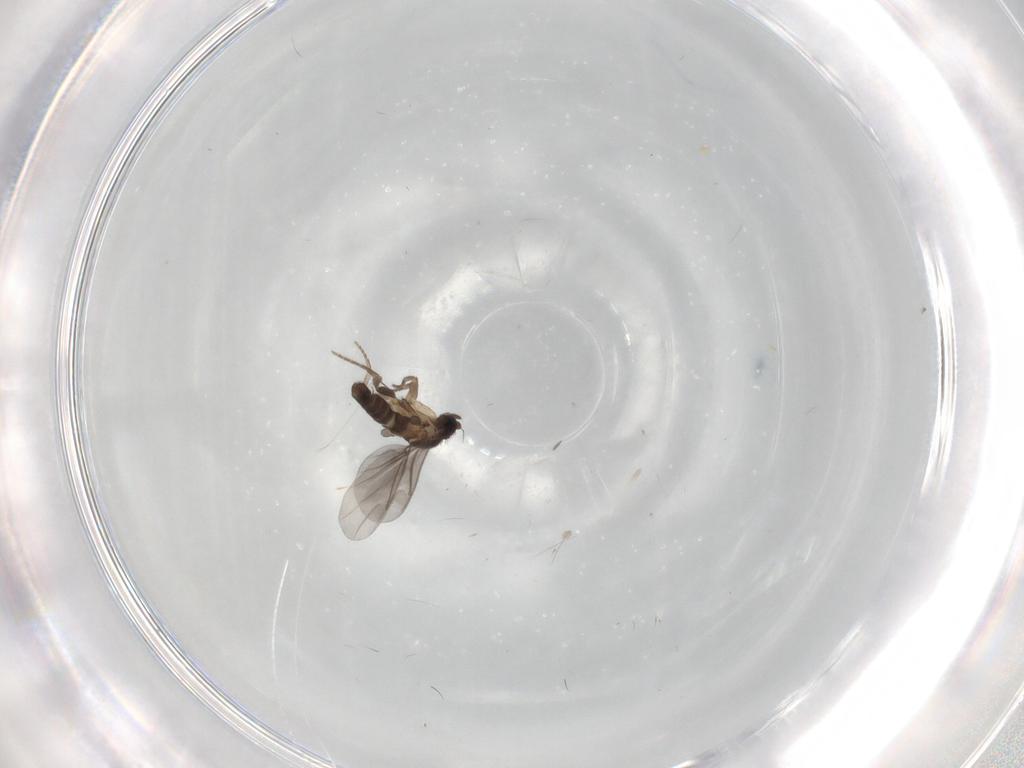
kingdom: Animalia
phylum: Arthropoda
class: Insecta
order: Diptera
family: Chironomidae
